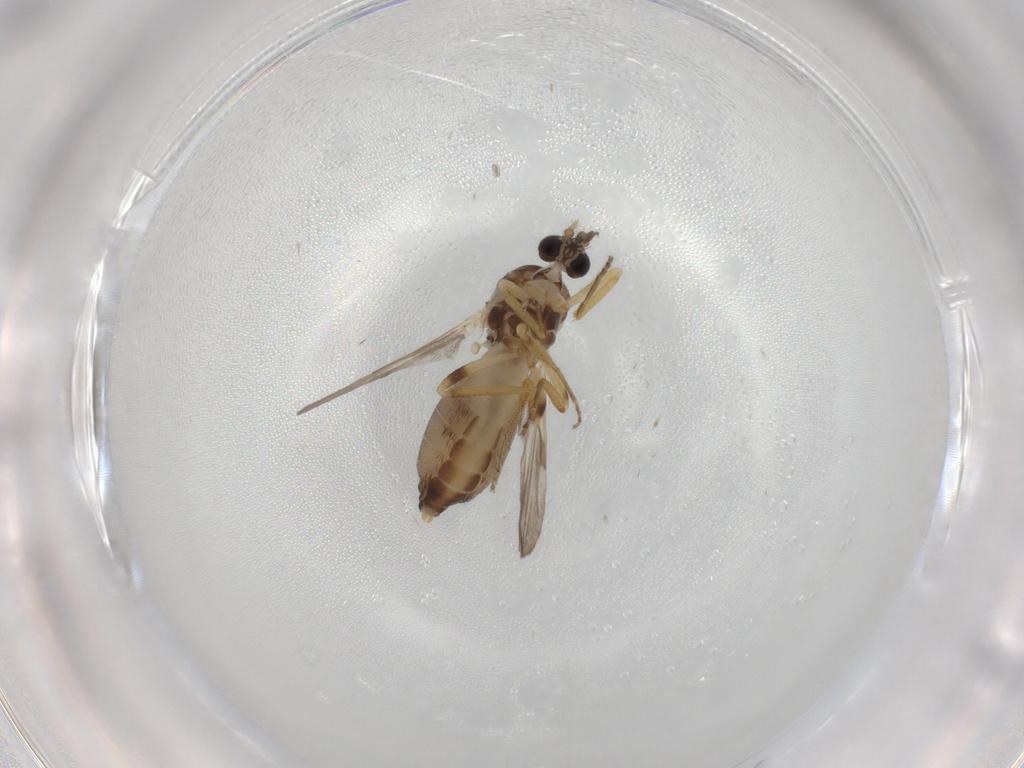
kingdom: Animalia
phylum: Arthropoda
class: Insecta
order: Diptera
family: Ceratopogonidae
